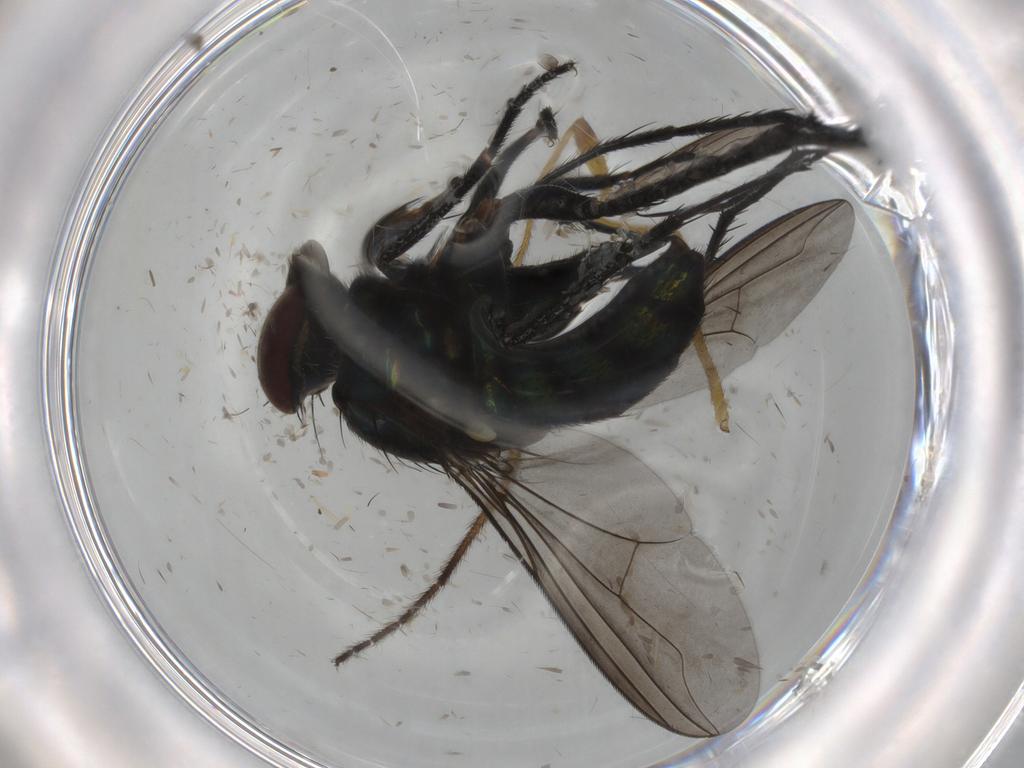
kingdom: Animalia
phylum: Arthropoda
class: Insecta
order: Diptera
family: Limoniidae
